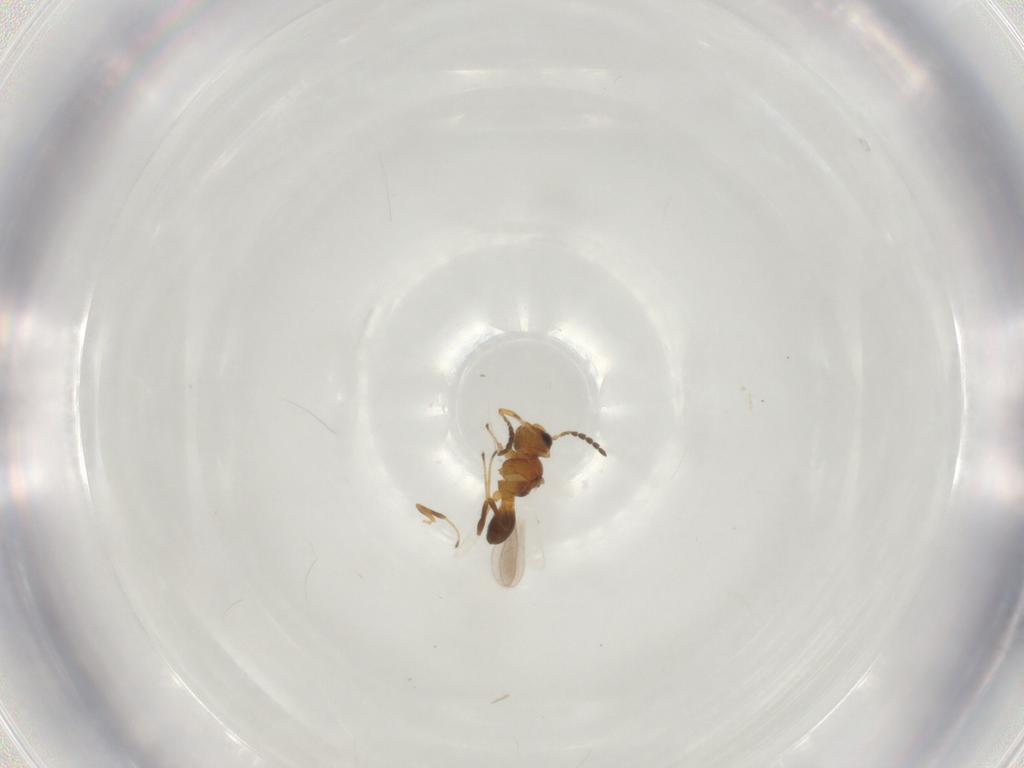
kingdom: Animalia
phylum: Arthropoda
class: Insecta
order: Hymenoptera
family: Platygastridae
